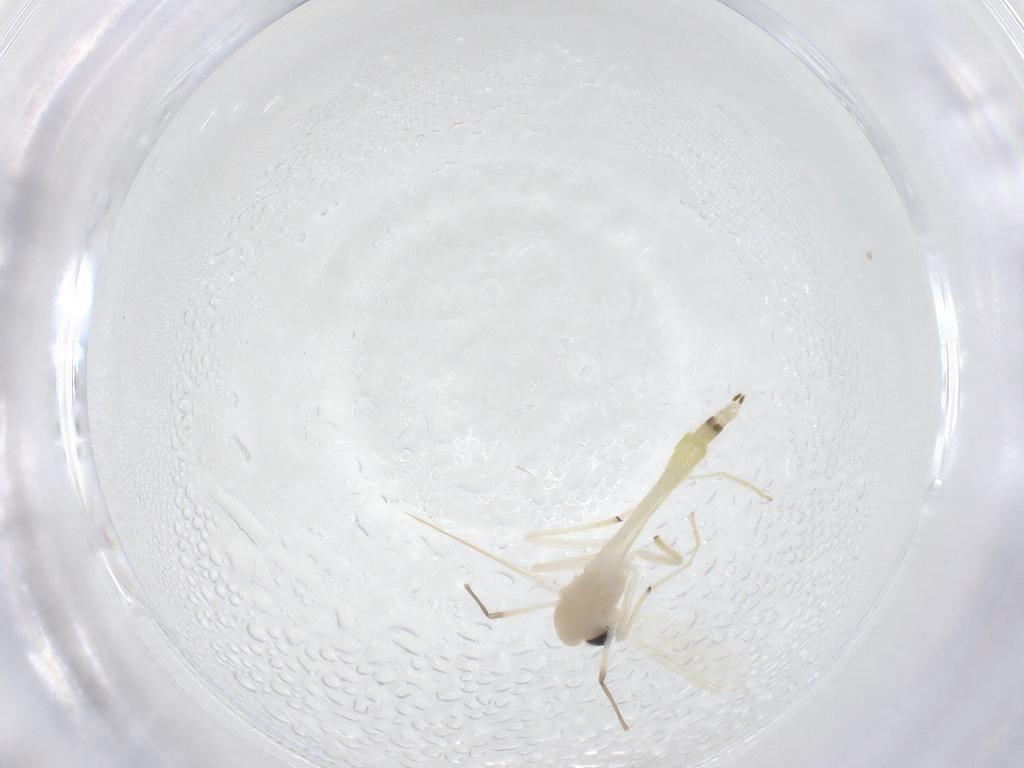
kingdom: Animalia
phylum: Arthropoda
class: Insecta
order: Diptera
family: Chironomidae
